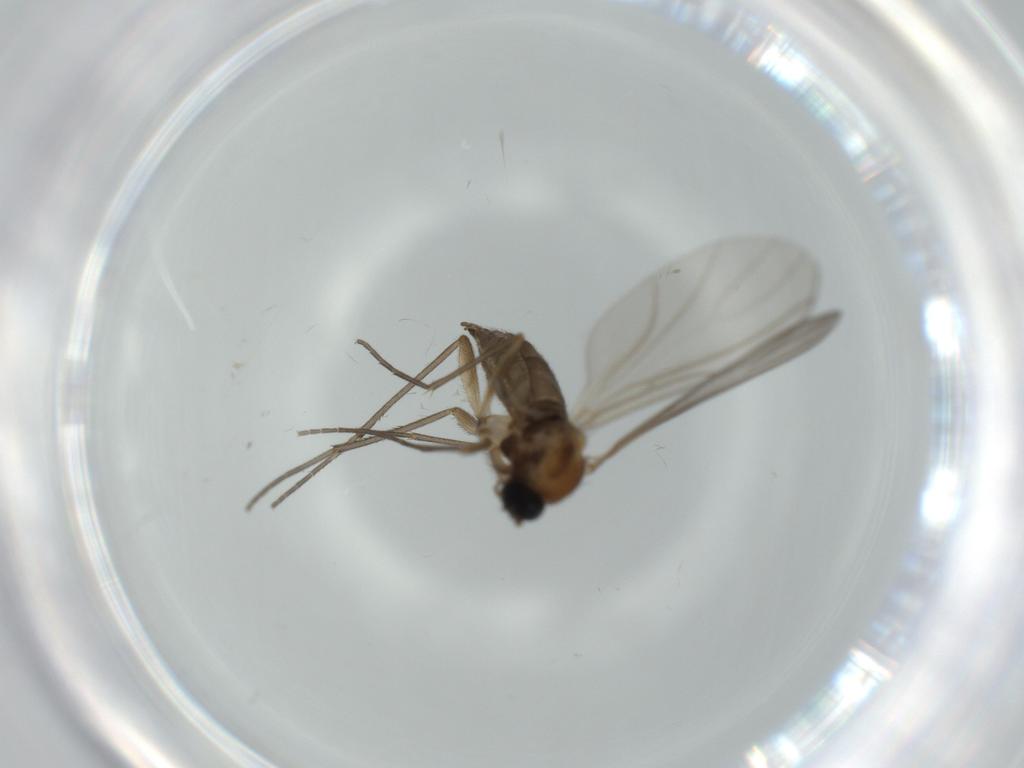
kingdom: Animalia
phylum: Arthropoda
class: Insecta
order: Diptera
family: Sciaridae
